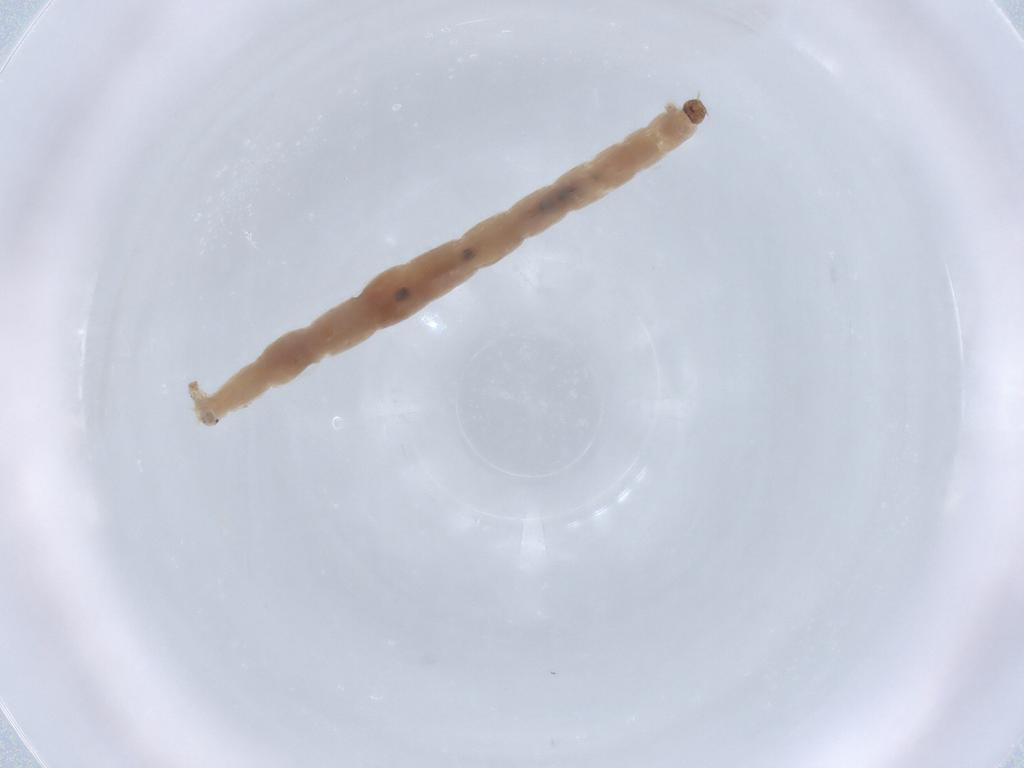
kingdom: Animalia
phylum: Arthropoda
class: Insecta
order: Diptera
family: Chironomidae
